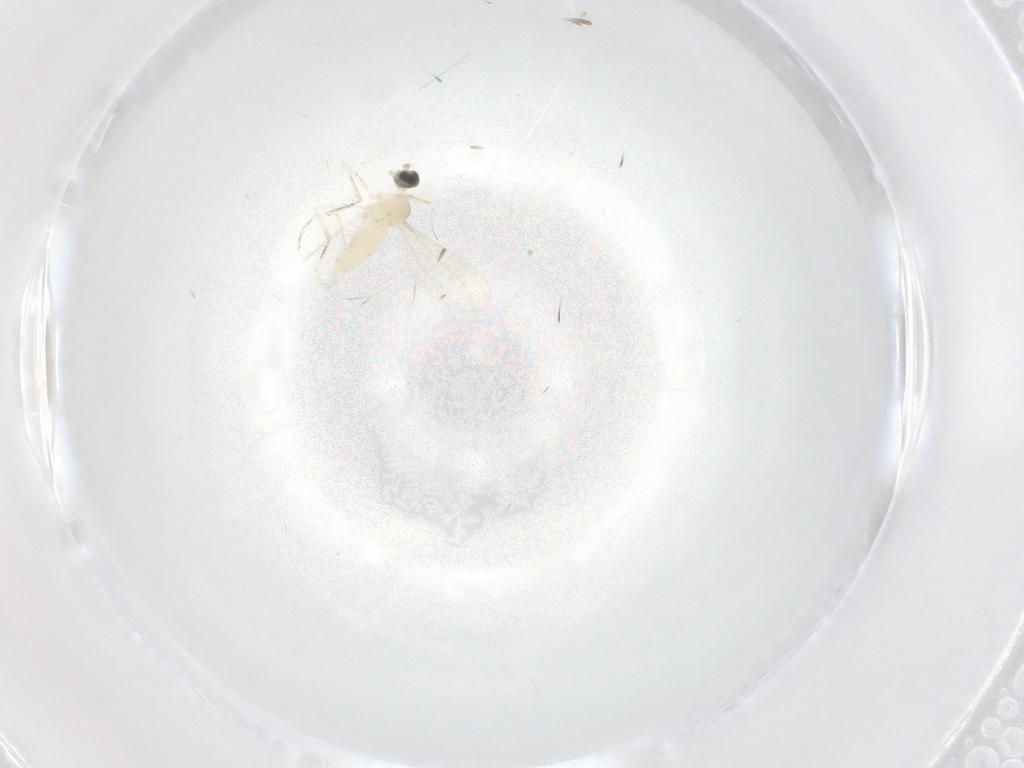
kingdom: Animalia
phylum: Arthropoda
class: Insecta
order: Diptera
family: Cecidomyiidae
